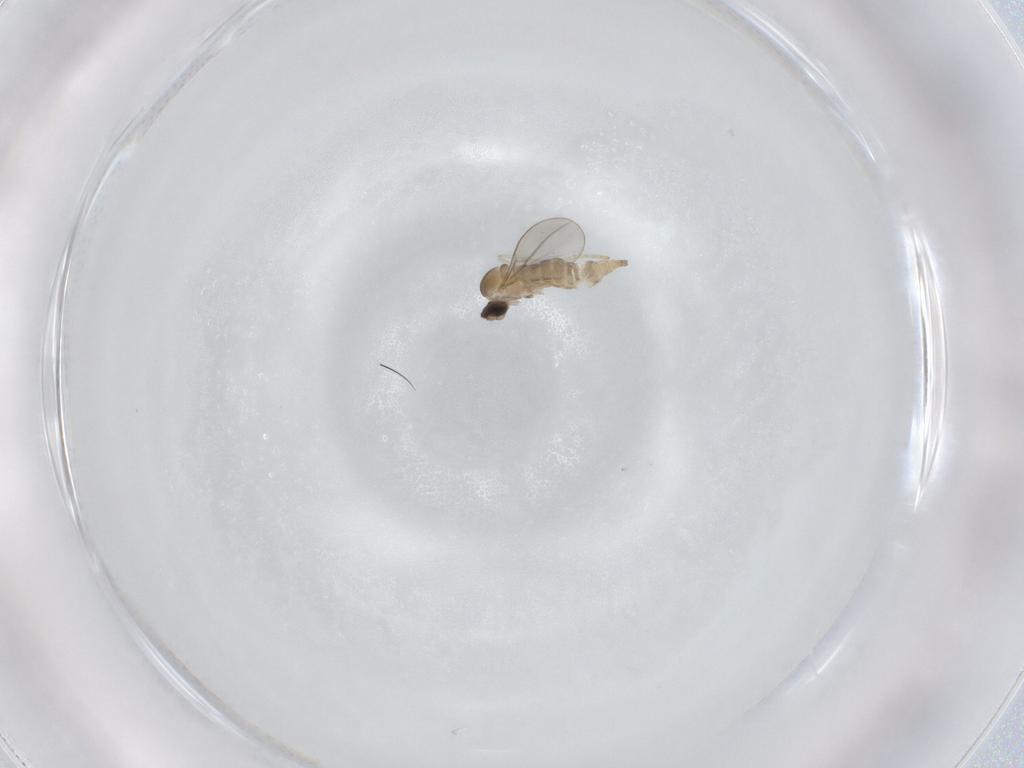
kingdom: Animalia
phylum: Arthropoda
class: Insecta
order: Diptera
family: Cecidomyiidae
